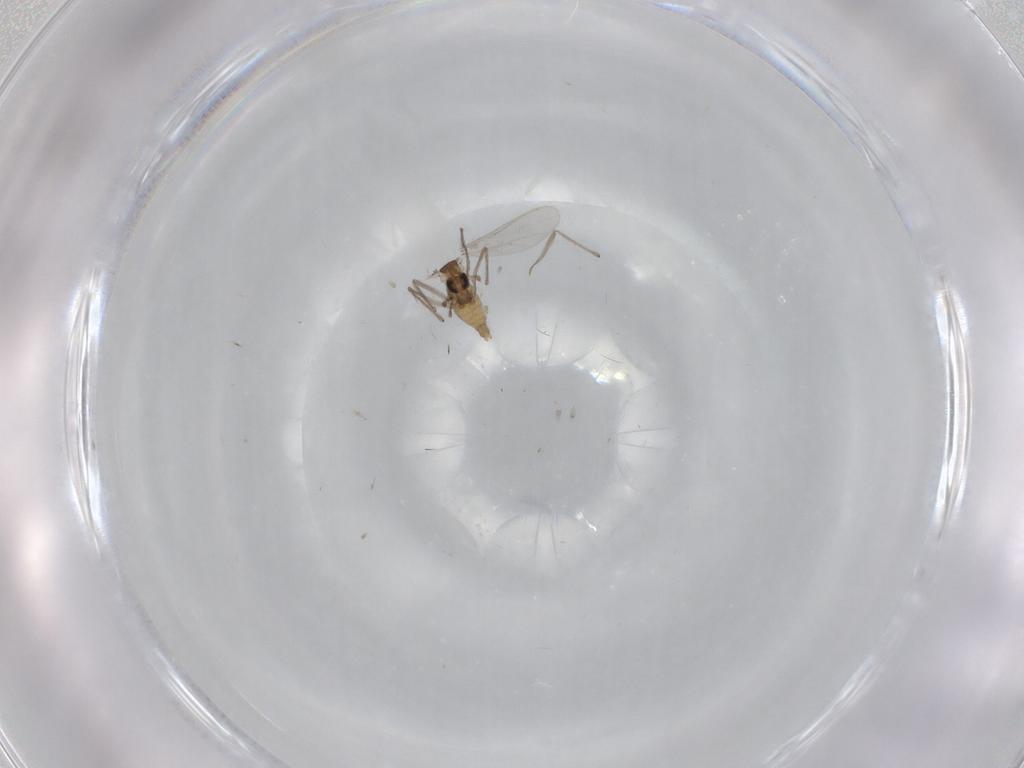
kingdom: Animalia
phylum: Arthropoda
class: Insecta
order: Diptera
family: Chironomidae
